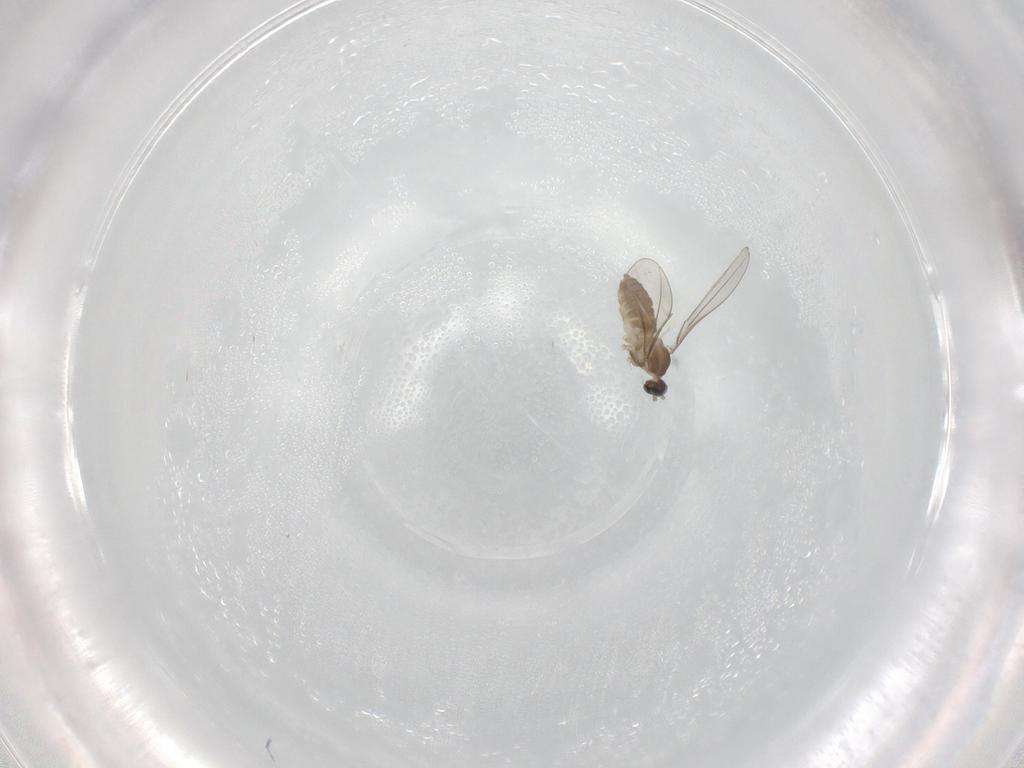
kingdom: Animalia
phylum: Arthropoda
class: Insecta
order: Diptera
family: Cecidomyiidae
